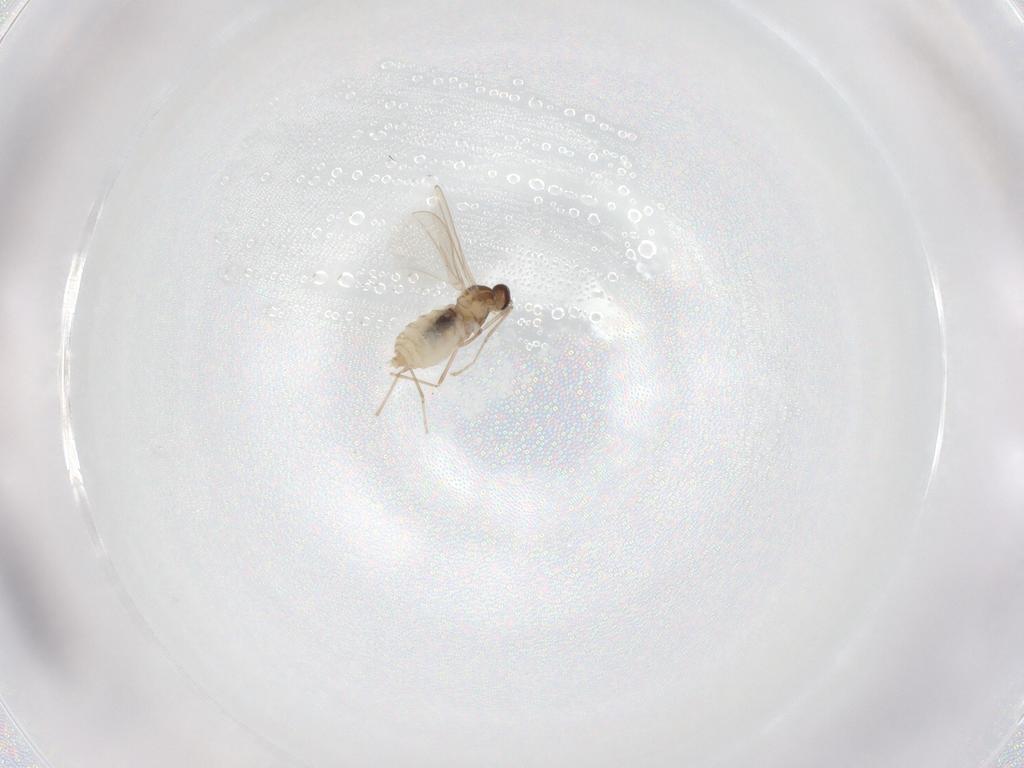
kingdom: Animalia
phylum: Arthropoda
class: Insecta
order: Diptera
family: Cecidomyiidae
